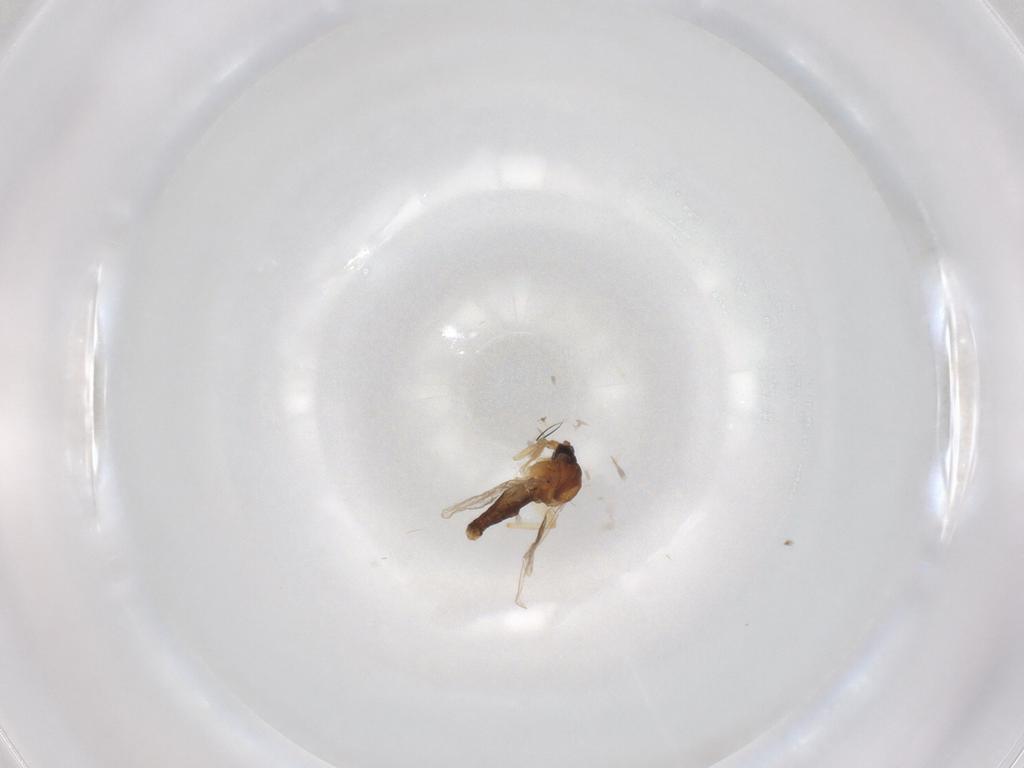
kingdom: Animalia
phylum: Arthropoda
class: Insecta
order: Diptera
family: Ceratopogonidae
